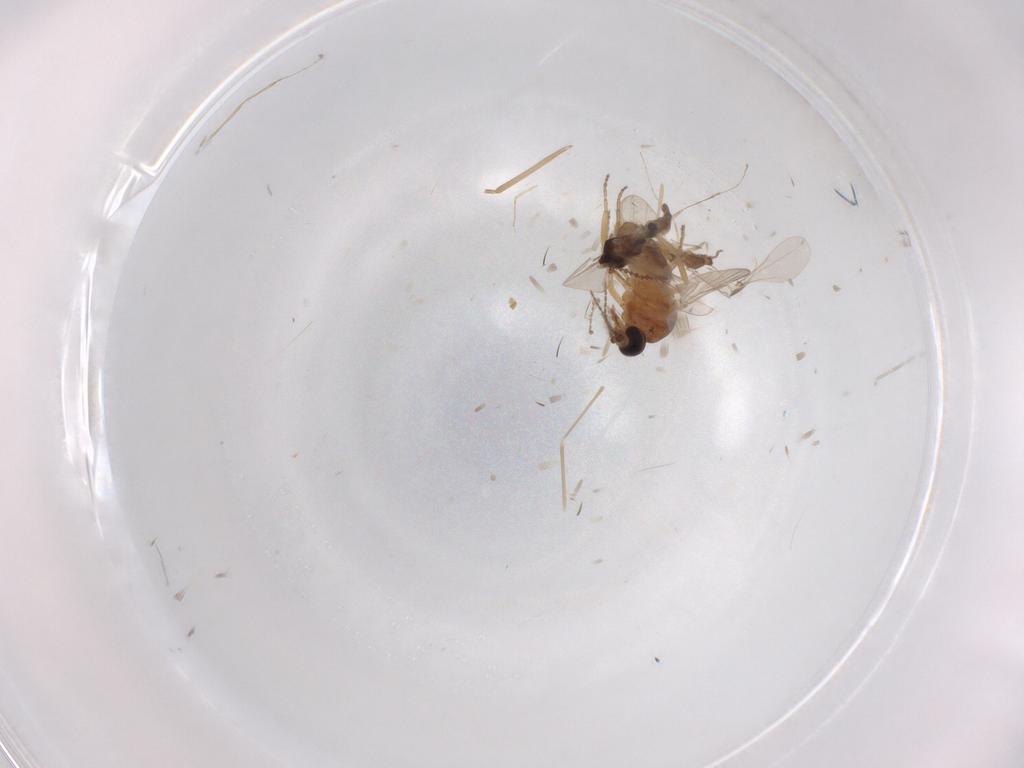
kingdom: Animalia
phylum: Arthropoda
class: Insecta
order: Diptera
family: Ceratopogonidae
